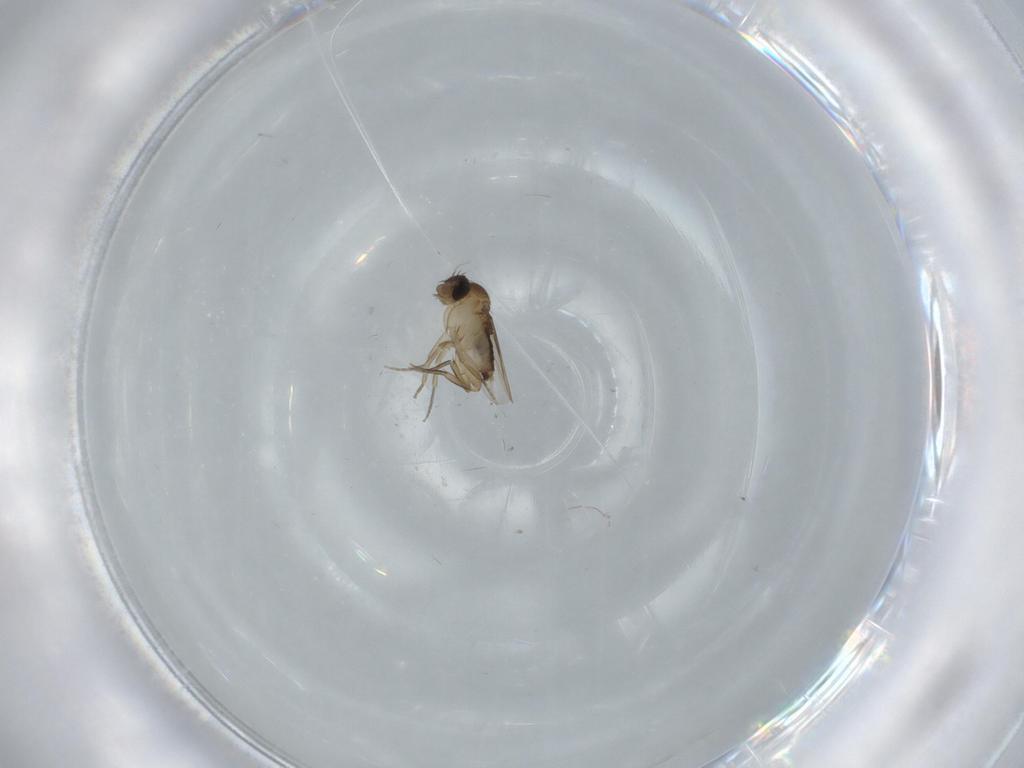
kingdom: Animalia
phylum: Arthropoda
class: Insecta
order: Diptera
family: Phoridae
